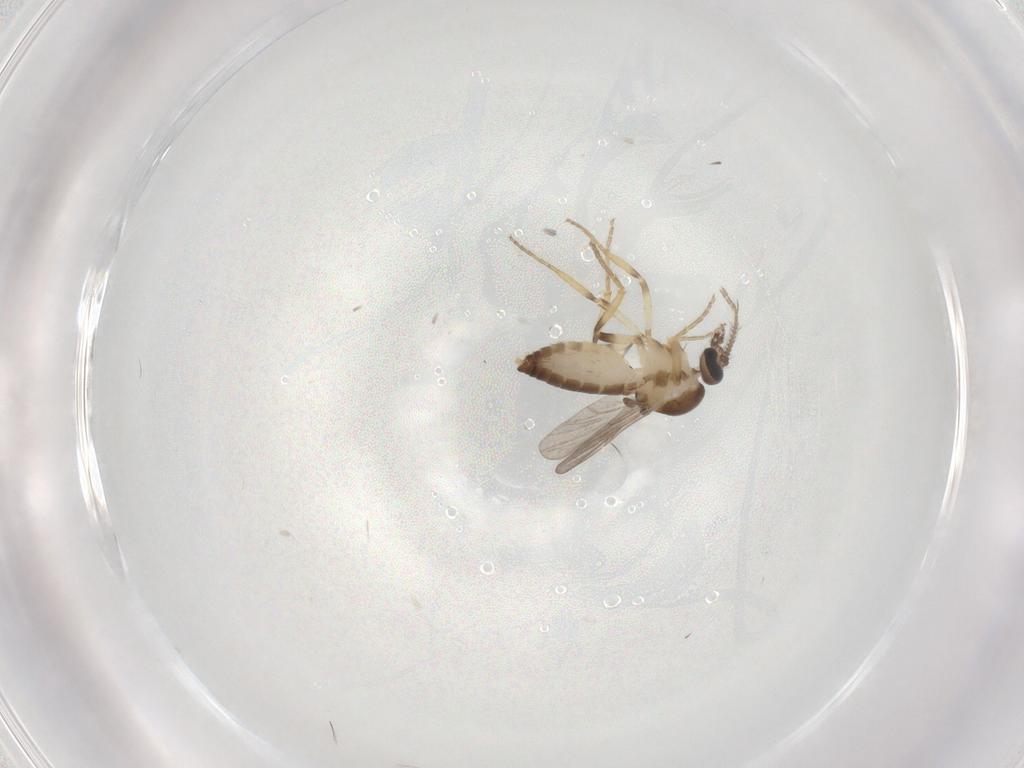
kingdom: Animalia
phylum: Arthropoda
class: Insecta
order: Diptera
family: Ceratopogonidae
